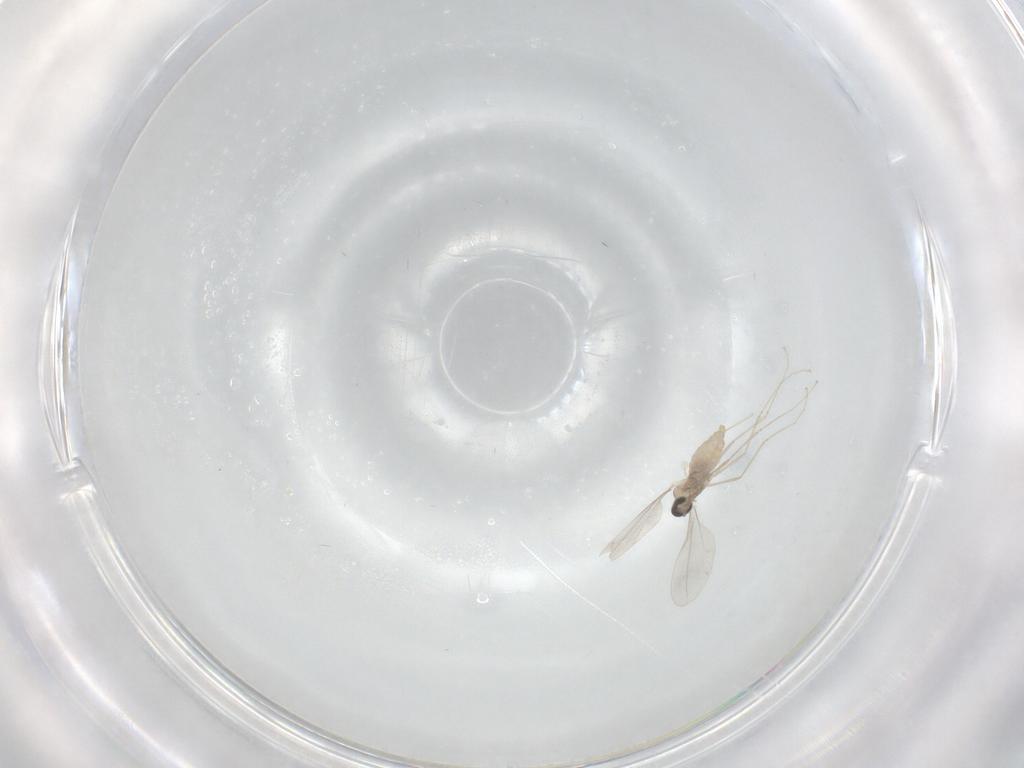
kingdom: Animalia
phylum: Arthropoda
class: Insecta
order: Diptera
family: Cecidomyiidae
